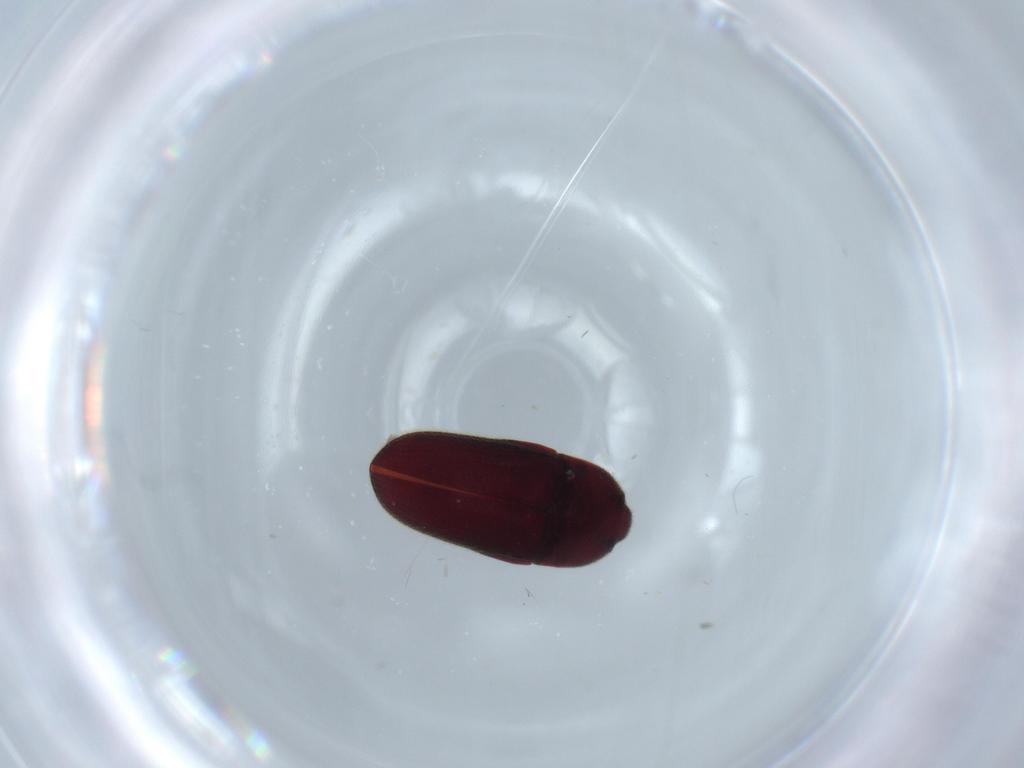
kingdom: Animalia
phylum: Arthropoda
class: Insecta
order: Coleoptera
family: Throscidae
